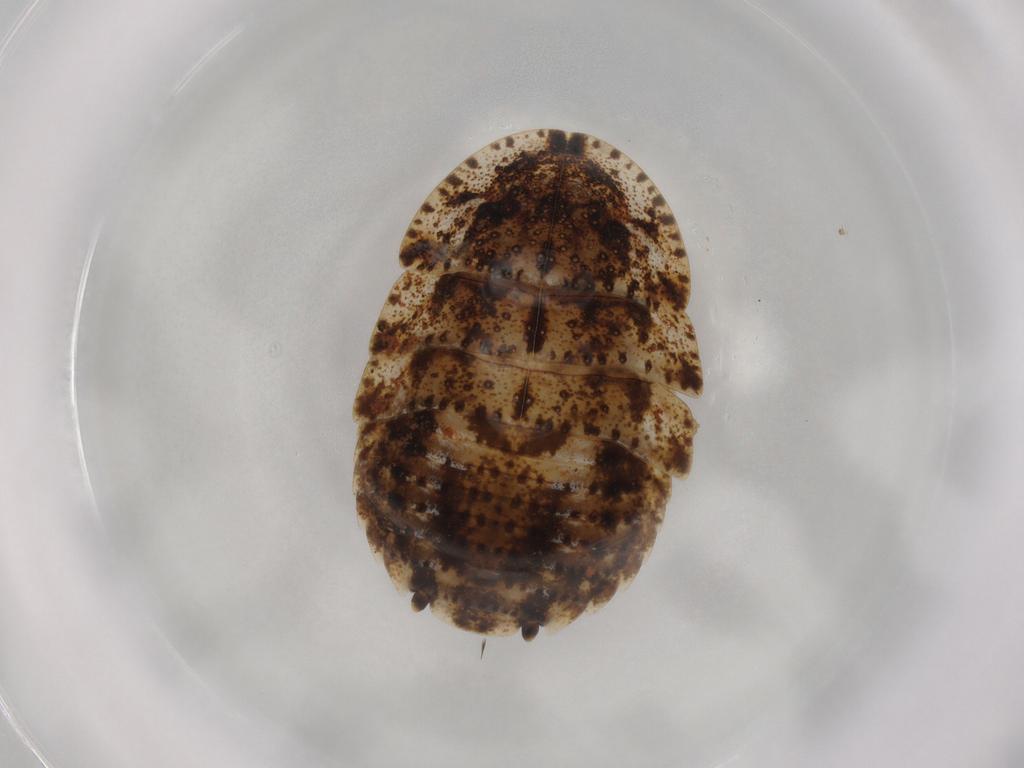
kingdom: Animalia
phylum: Arthropoda
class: Insecta
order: Blattodea
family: Blaberidae
